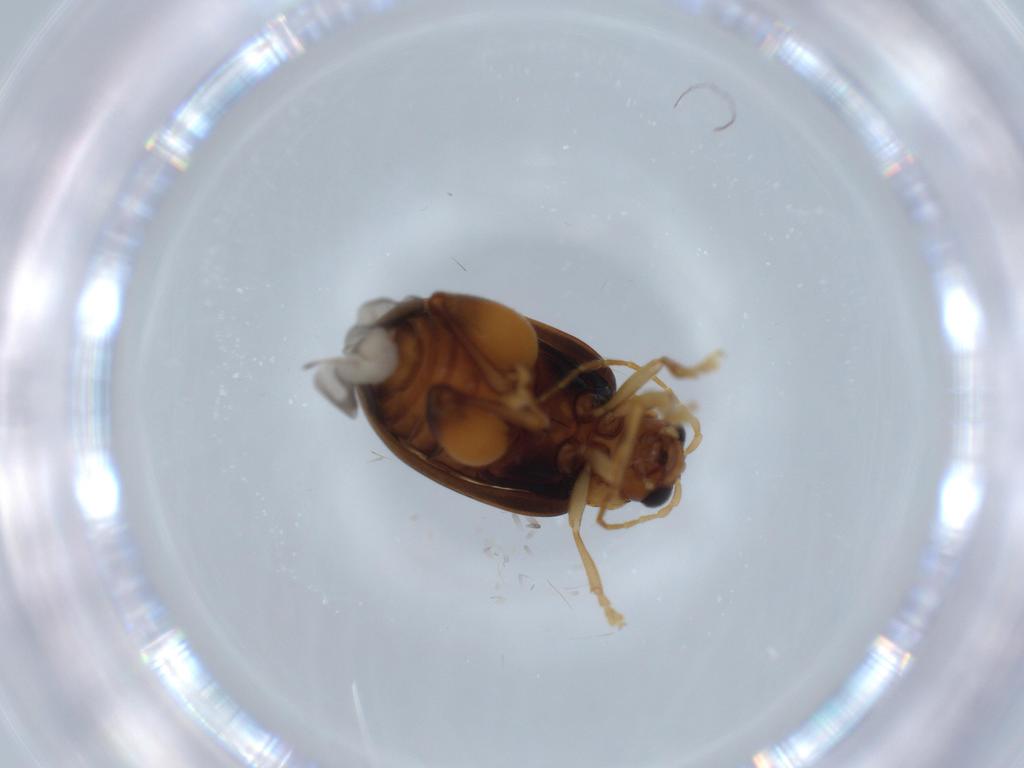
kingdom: Animalia
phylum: Arthropoda
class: Insecta
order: Coleoptera
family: Chrysomelidae
